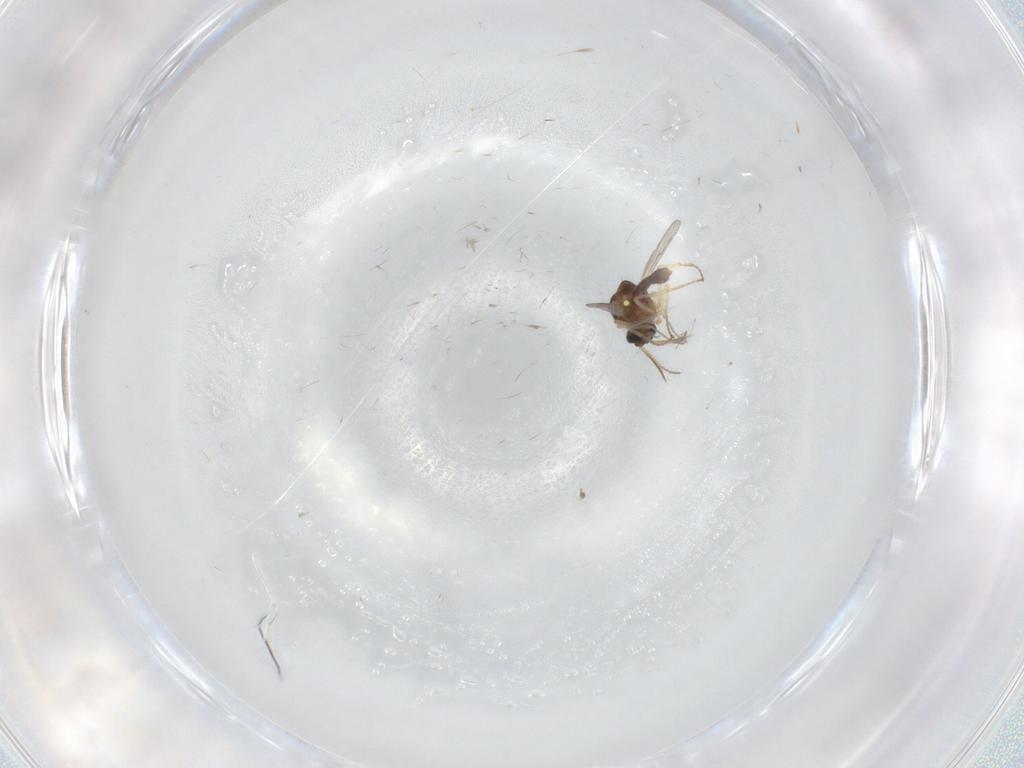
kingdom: Animalia
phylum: Arthropoda
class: Insecta
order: Diptera
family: Ceratopogonidae
